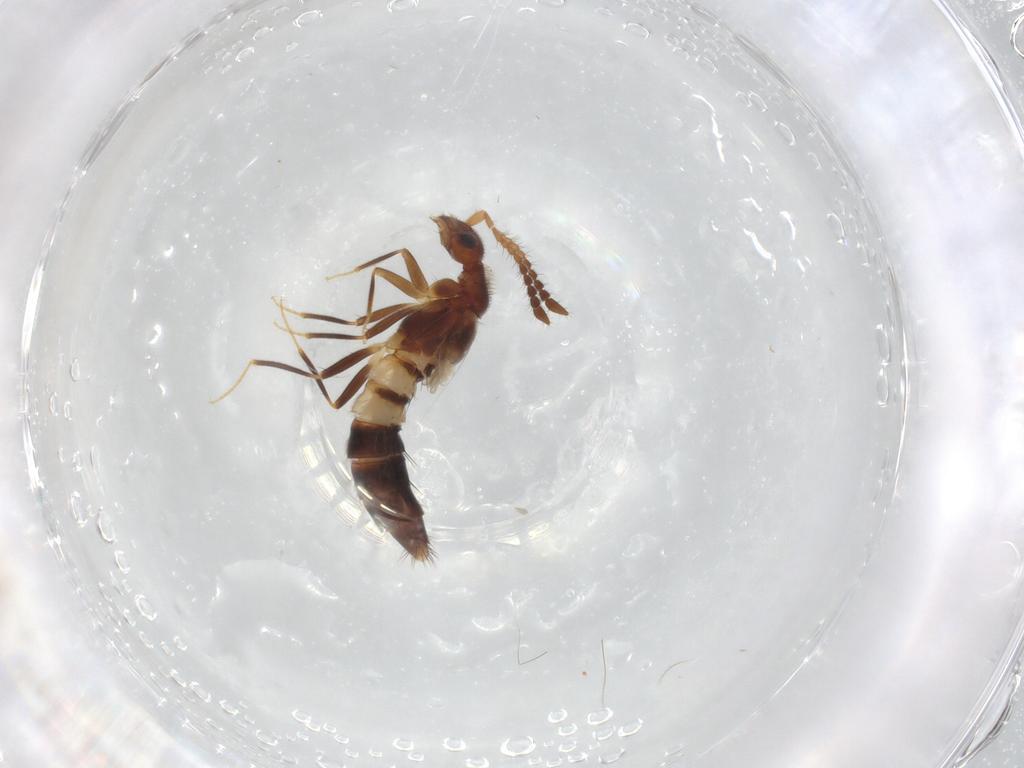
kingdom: Animalia
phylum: Arthropoda
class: Insecta
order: Coleoptera
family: Staphylinidae
